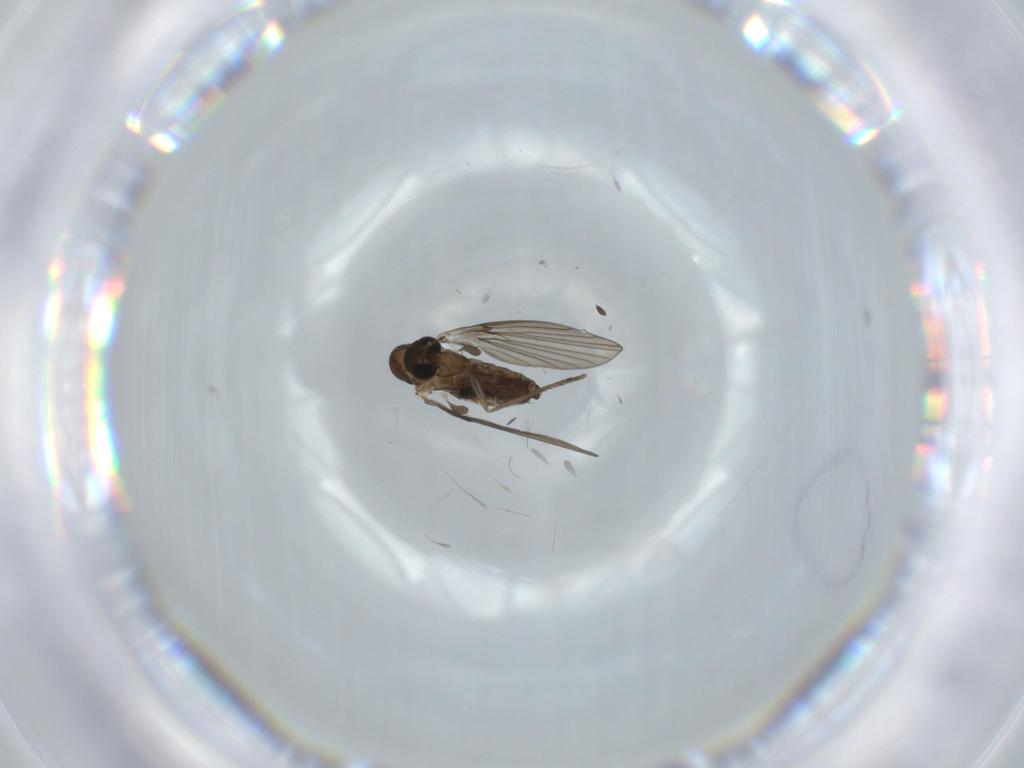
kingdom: Animalia
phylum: Arthropoda
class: Insecta
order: Diptera
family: Psychodidae
